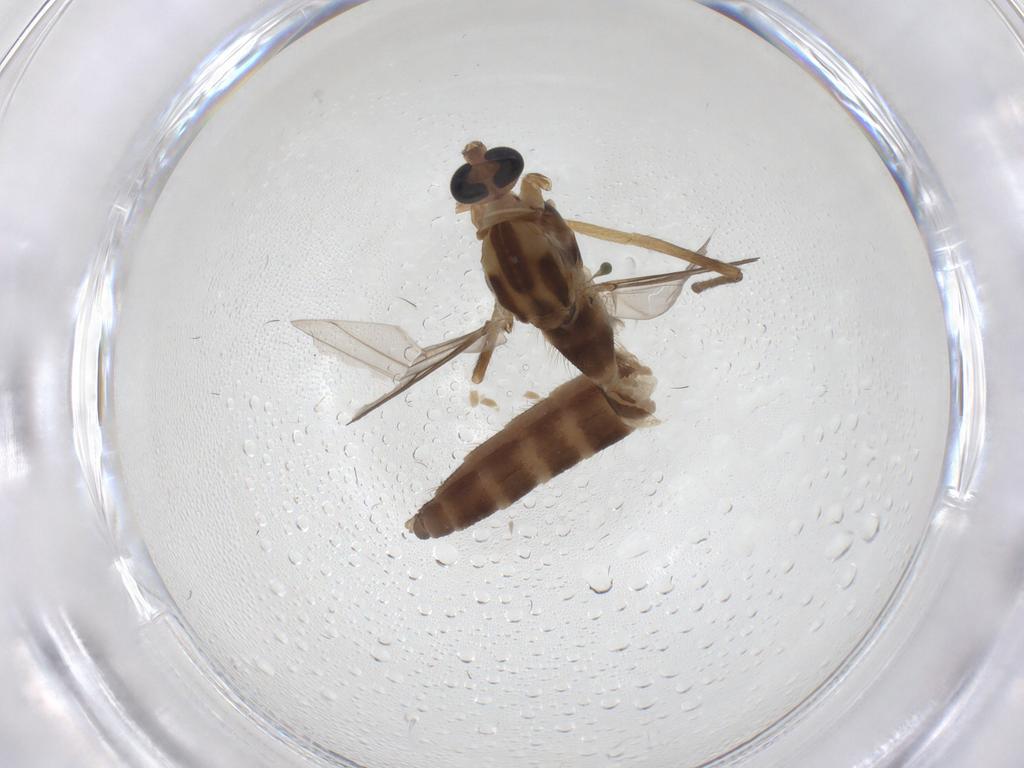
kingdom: Animalia
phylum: Arthropoda
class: Insecta
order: Diptera
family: Chironomidae
